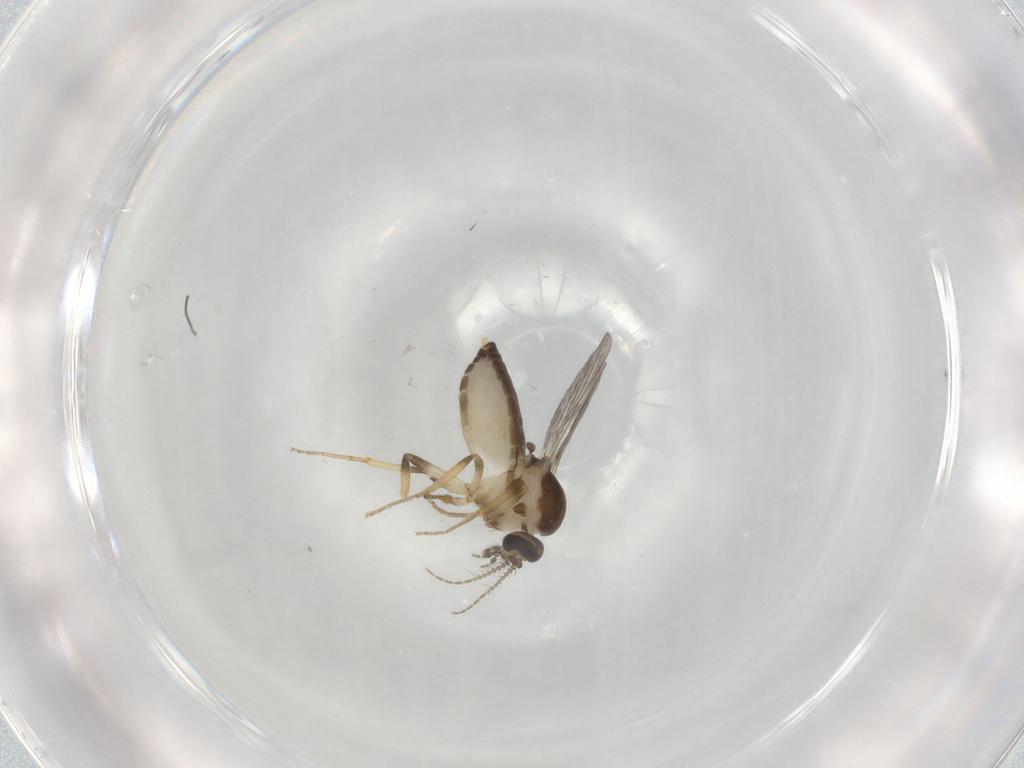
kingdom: Animalia
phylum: Arthropoda
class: Insecta
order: Diptera
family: Ceratopogonidae
